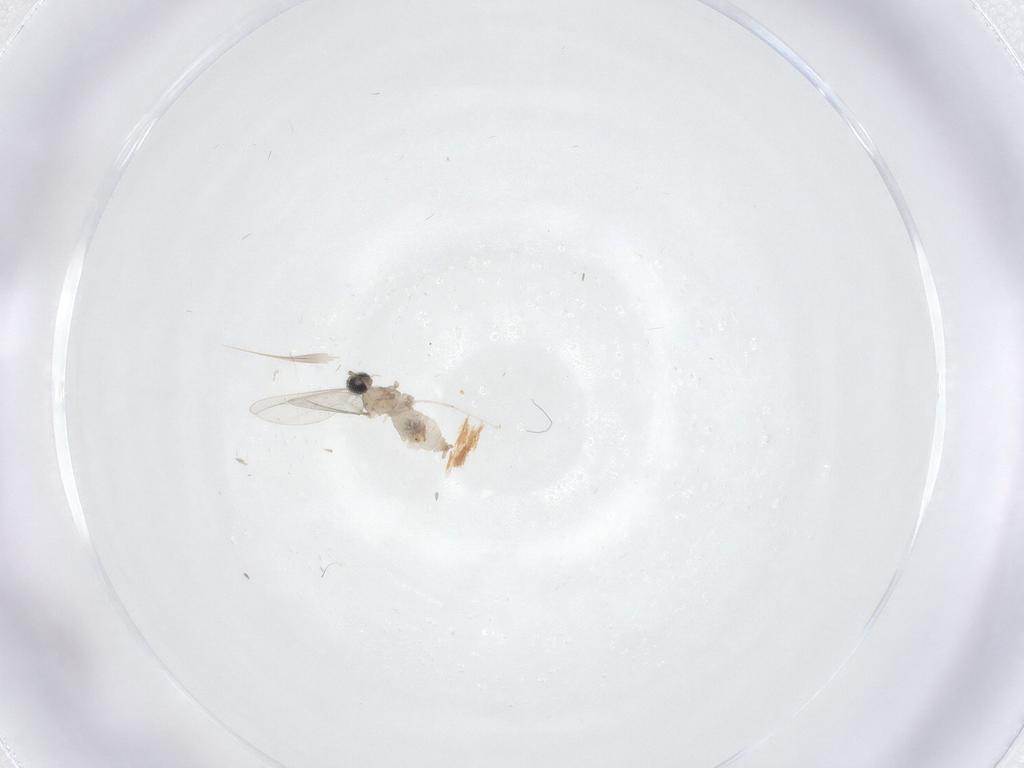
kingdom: Animalia
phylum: Arthropoda
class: Insecta
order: Diptera
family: Cecidomyiidae
